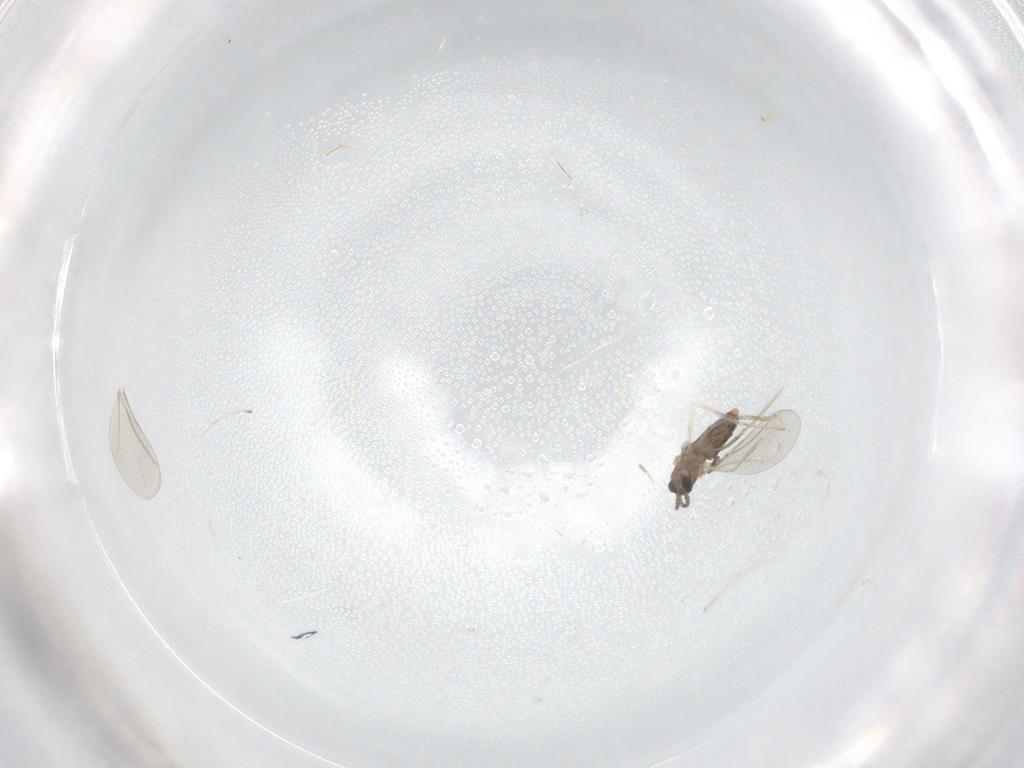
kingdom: Animalia
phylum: Arthropoda
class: Insecta
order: Diptera
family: Cecidomyiidae
